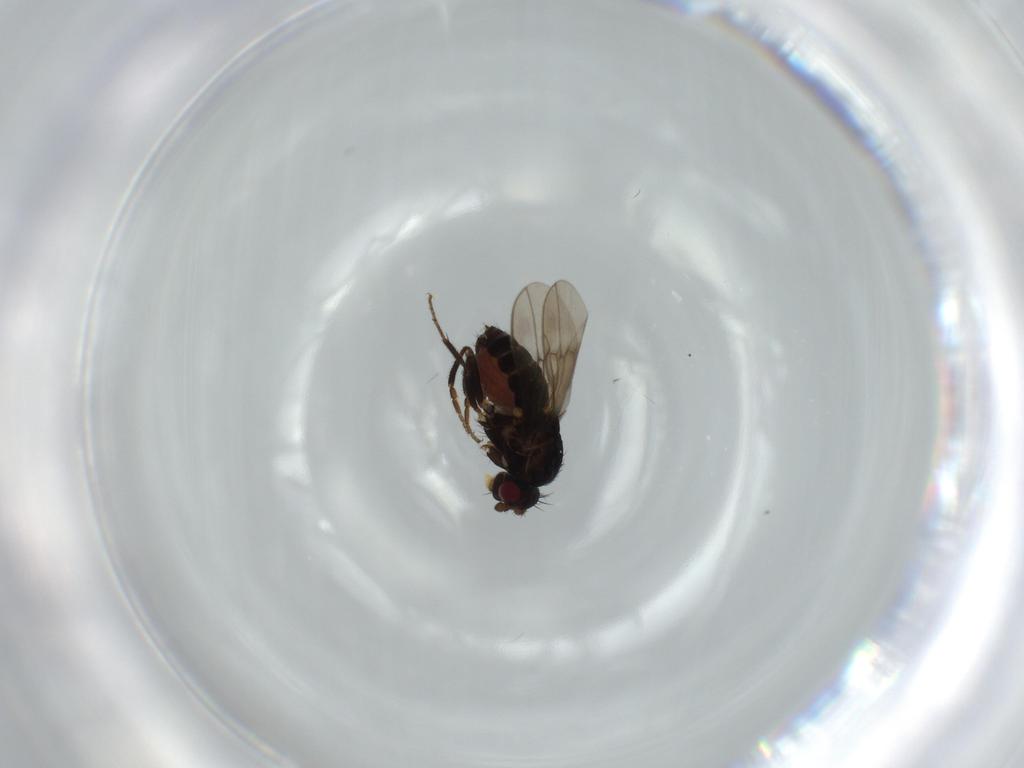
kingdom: Animalia
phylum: Arthropoda
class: Insecta
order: Diptera
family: Sphaeroceridae
